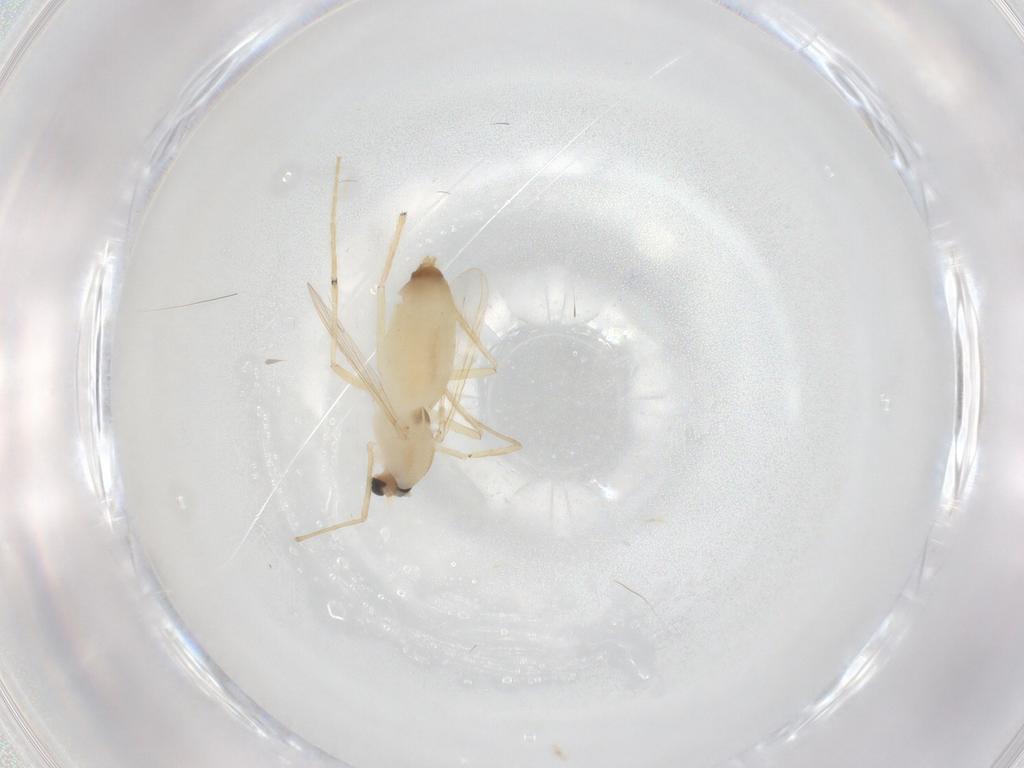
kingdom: Animalia
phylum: Arthropoda
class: Insecta
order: Diptera
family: Chironomidae
